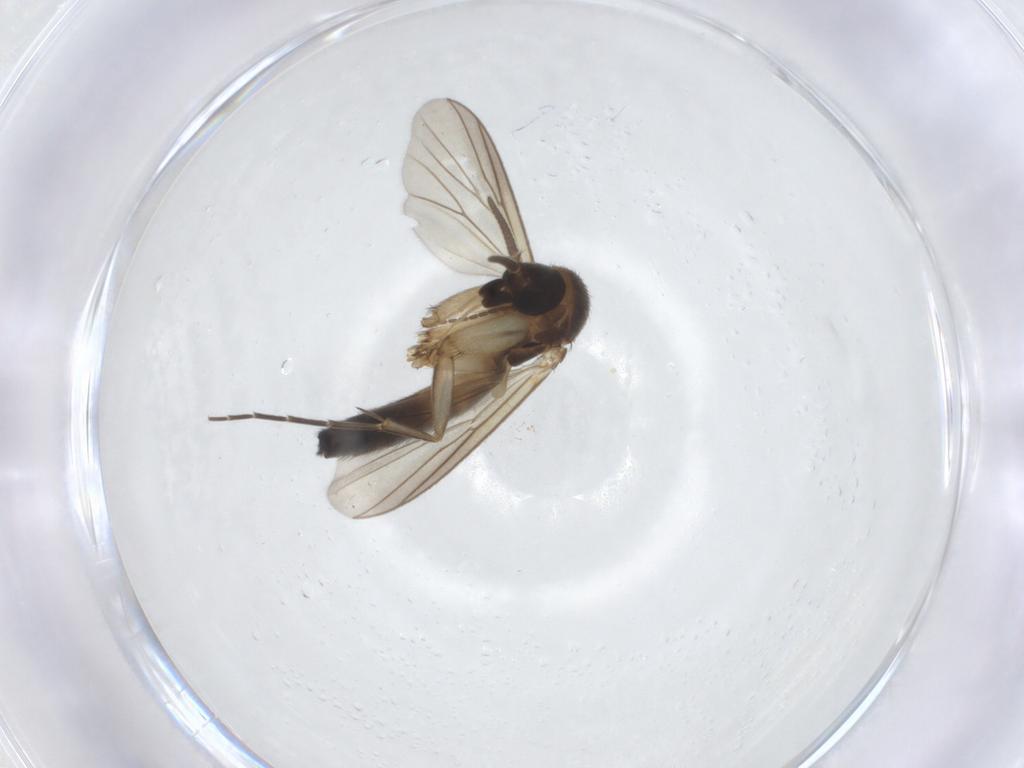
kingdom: Animalia
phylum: Arthropoda
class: Insecta
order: Diptera
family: Mycetophilidae
